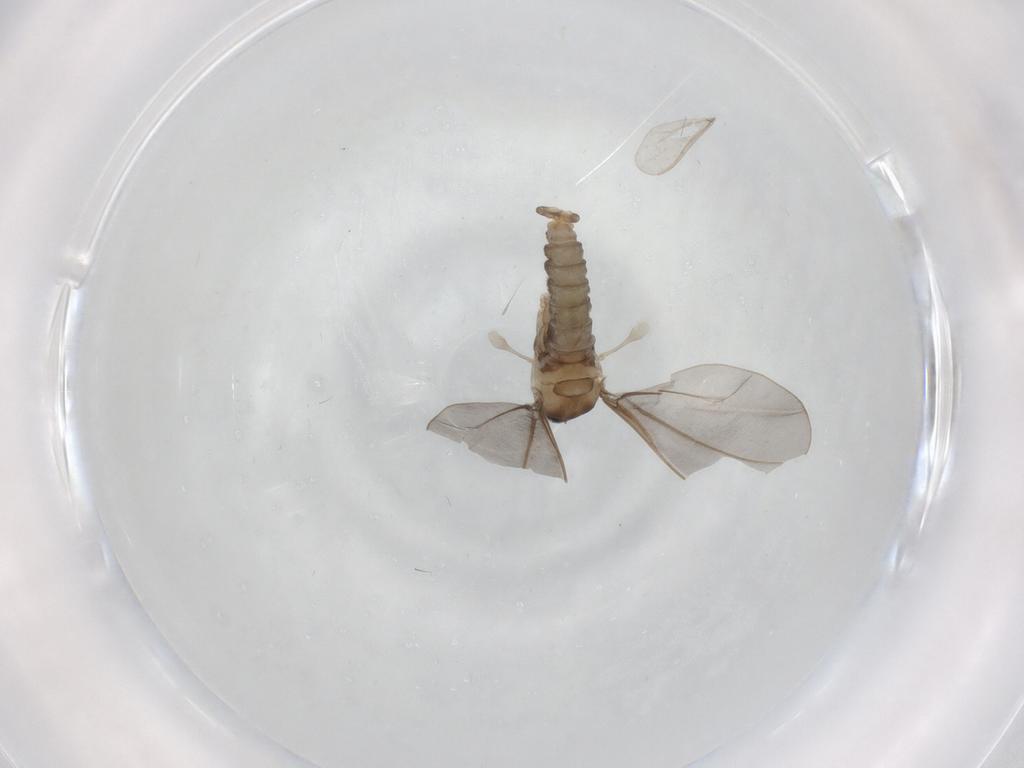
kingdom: Animalia
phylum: Arthropoda
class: Insecta
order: Diptera
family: Cecidomyiidae
